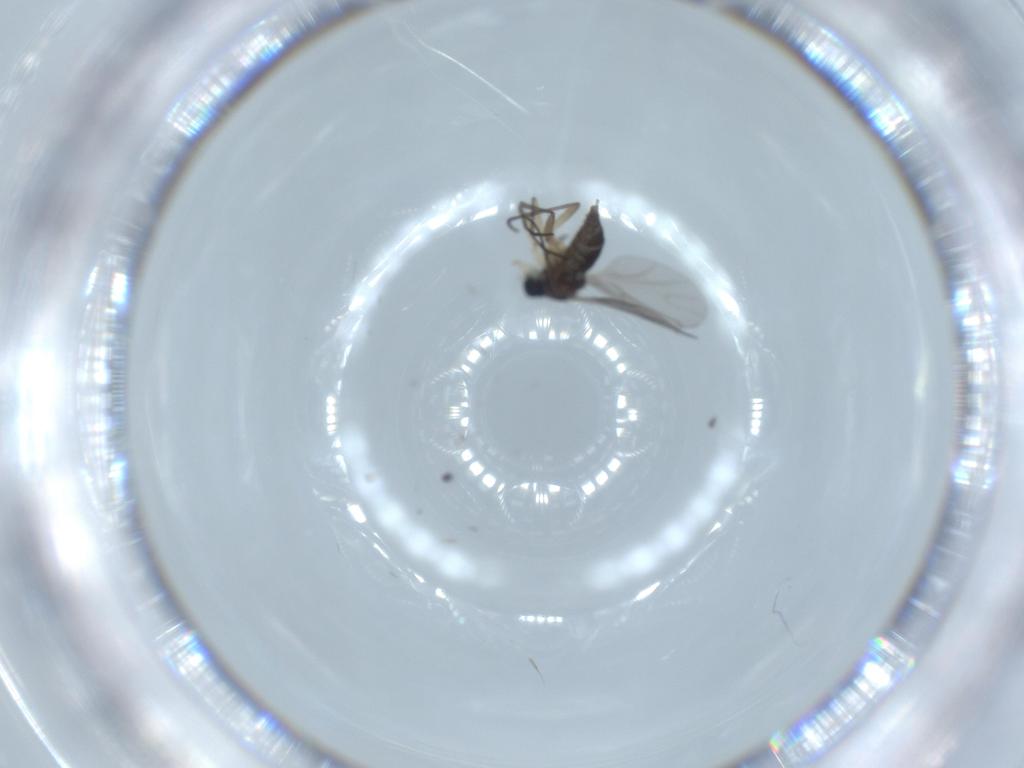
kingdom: Animalia
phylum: Arthropoda
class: Insecta
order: Diptera
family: Sciaridae
